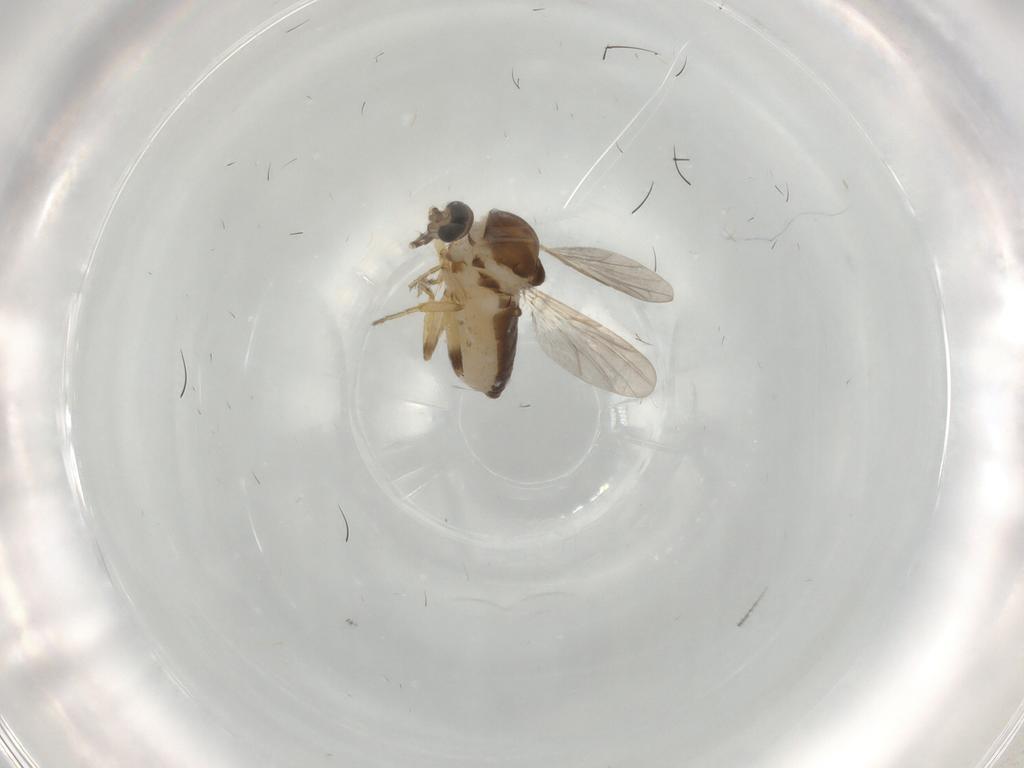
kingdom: Animalia
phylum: Arthropoda
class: Insecta
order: Diptera
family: Ceratopogonidae
